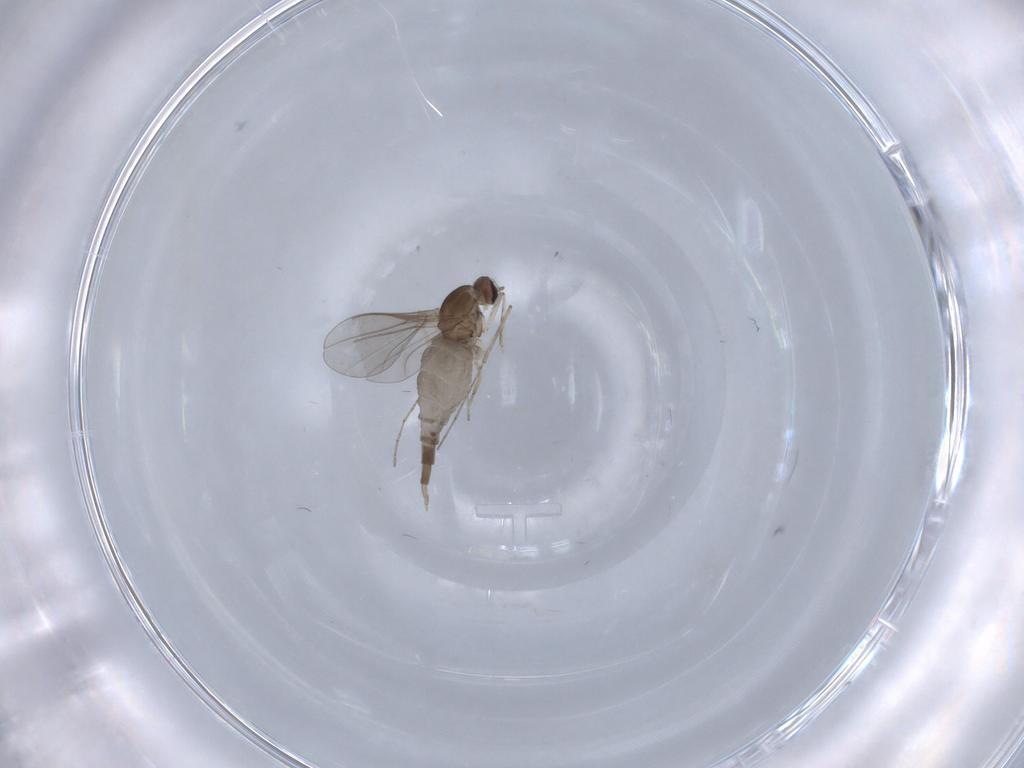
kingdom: Animalia
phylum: Arthropoda
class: Insecta
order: Diptera
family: Cecidomyiidae
